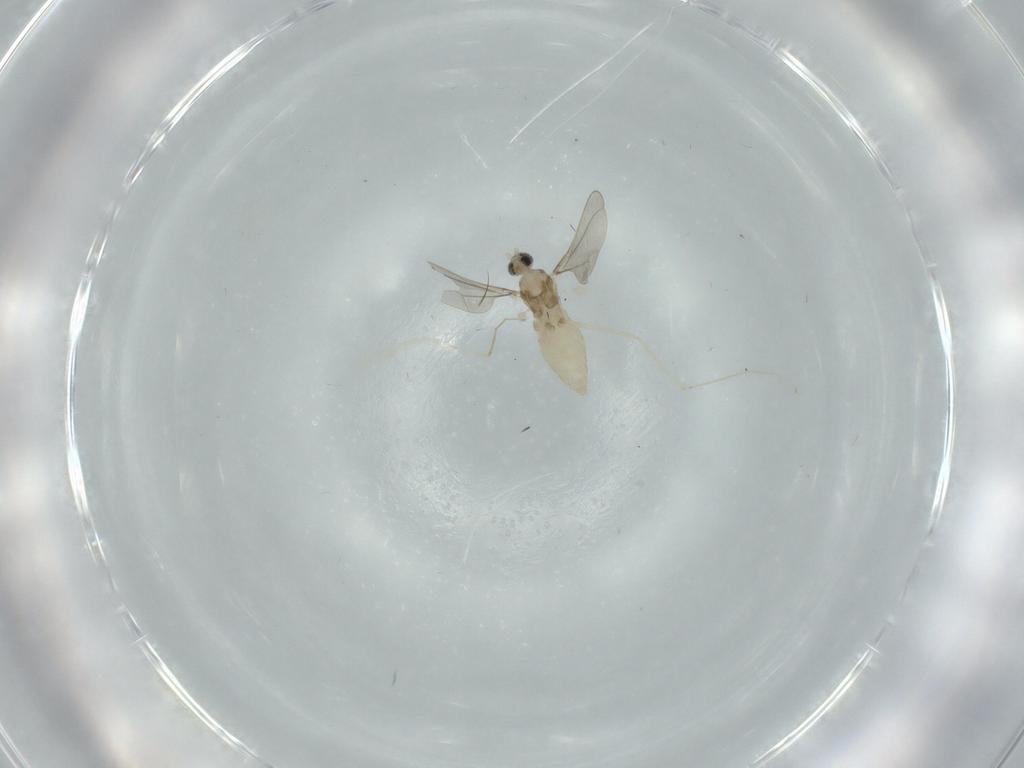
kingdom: Animalia
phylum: Arthropoda
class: Insecta
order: Diptera
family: Cecidomyiidae
